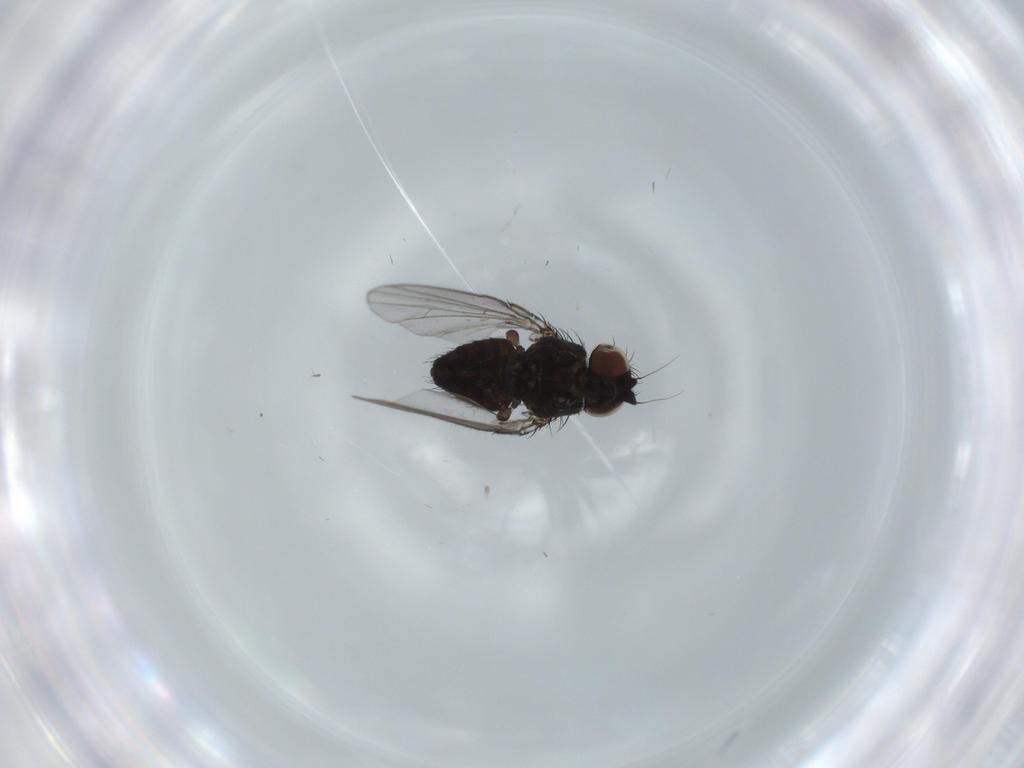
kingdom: Animalia
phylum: Arthropoda
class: Insecta
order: Diptera
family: Milichiidae
